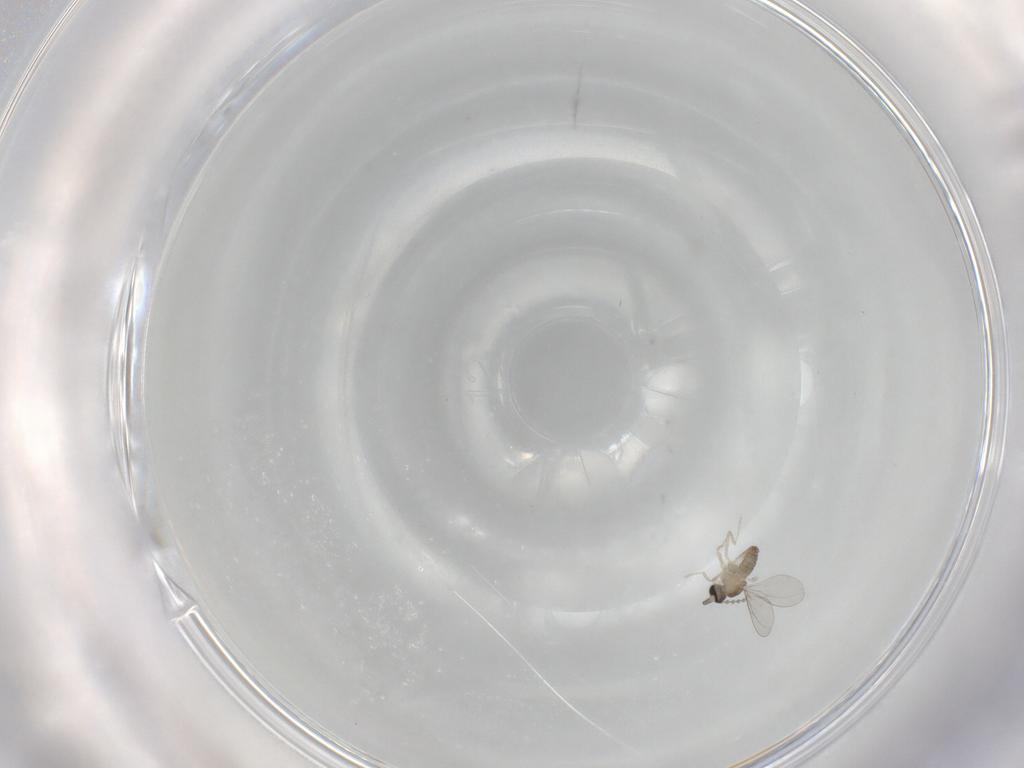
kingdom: Animalia
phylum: Arthropoda
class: Insecta
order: Diptera
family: Cecidomyiidae
